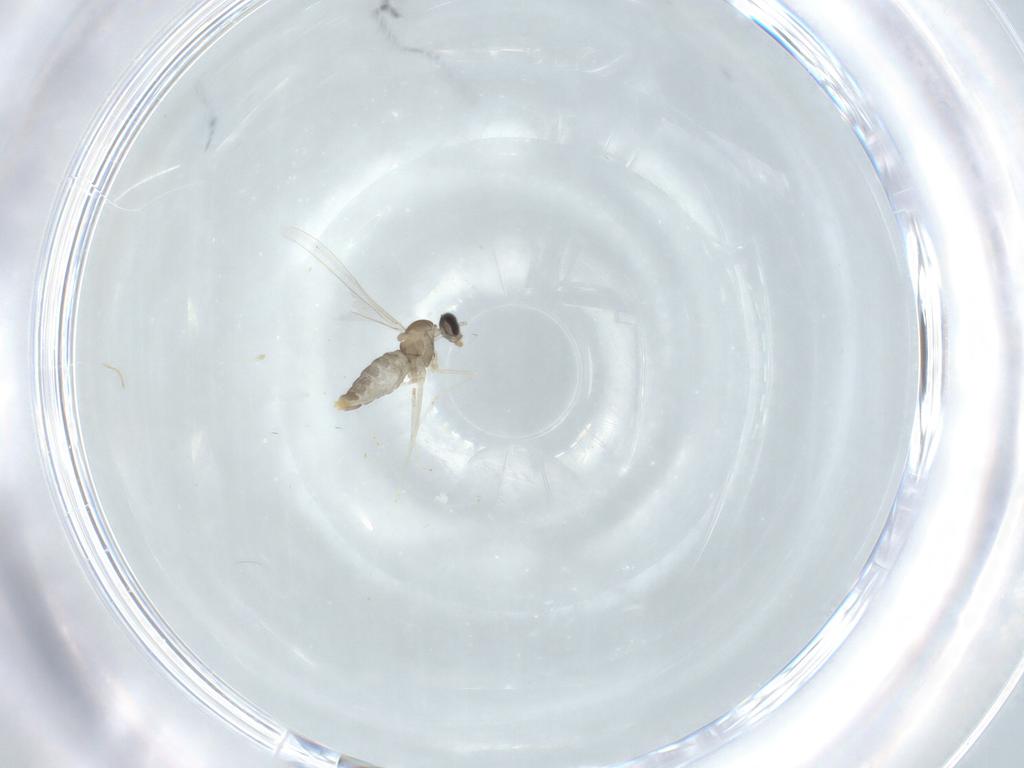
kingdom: Animalia
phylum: Arthropoda
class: Insecta
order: Diptera
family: Cecidomyiidae
